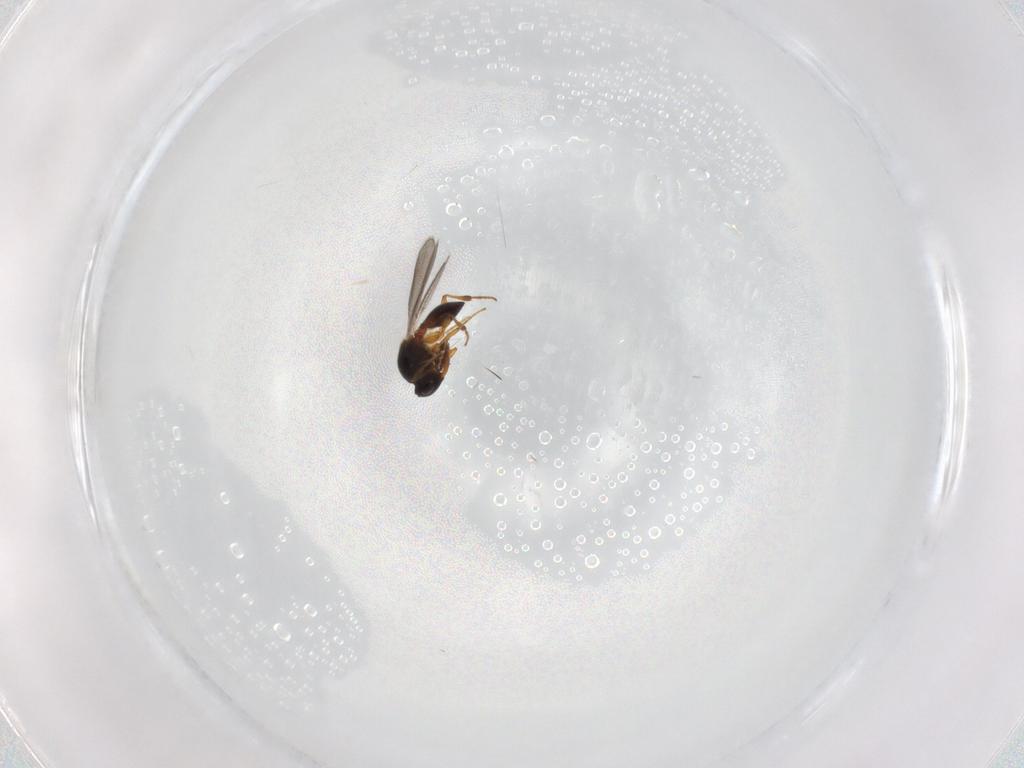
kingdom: Animalia
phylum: Arthropoda
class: Insecta
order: Hymenoptera
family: Platygastridae
